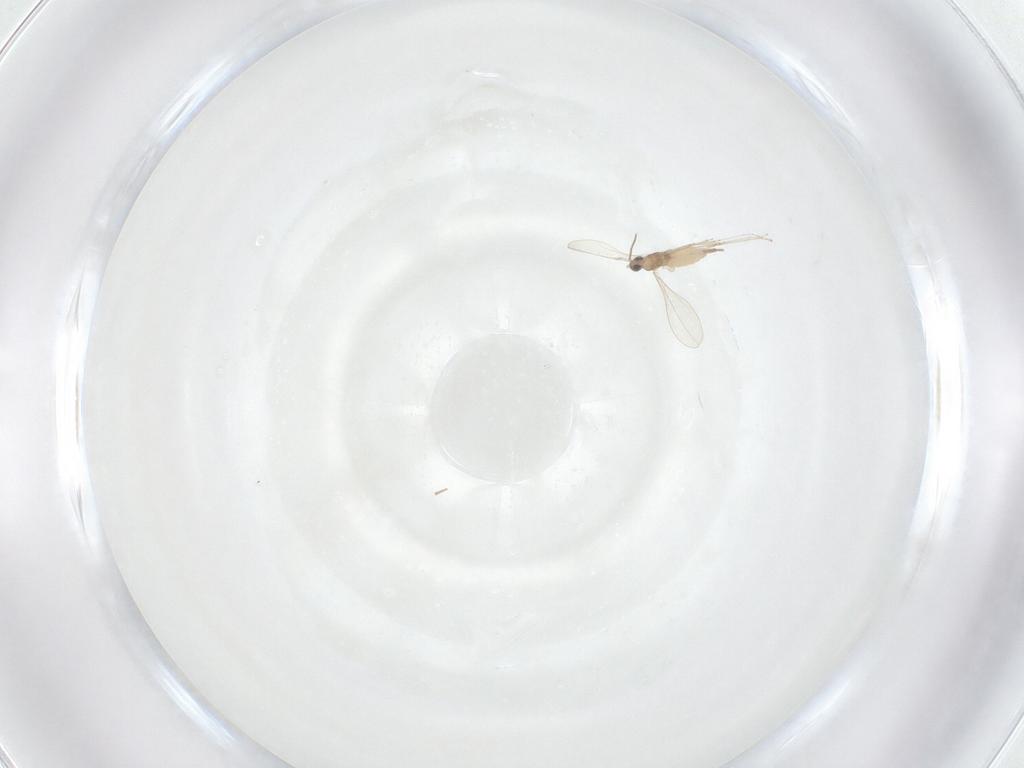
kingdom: Animalia
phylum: Arthropoda
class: Insecta
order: Diptera
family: Cecidomyiidae
